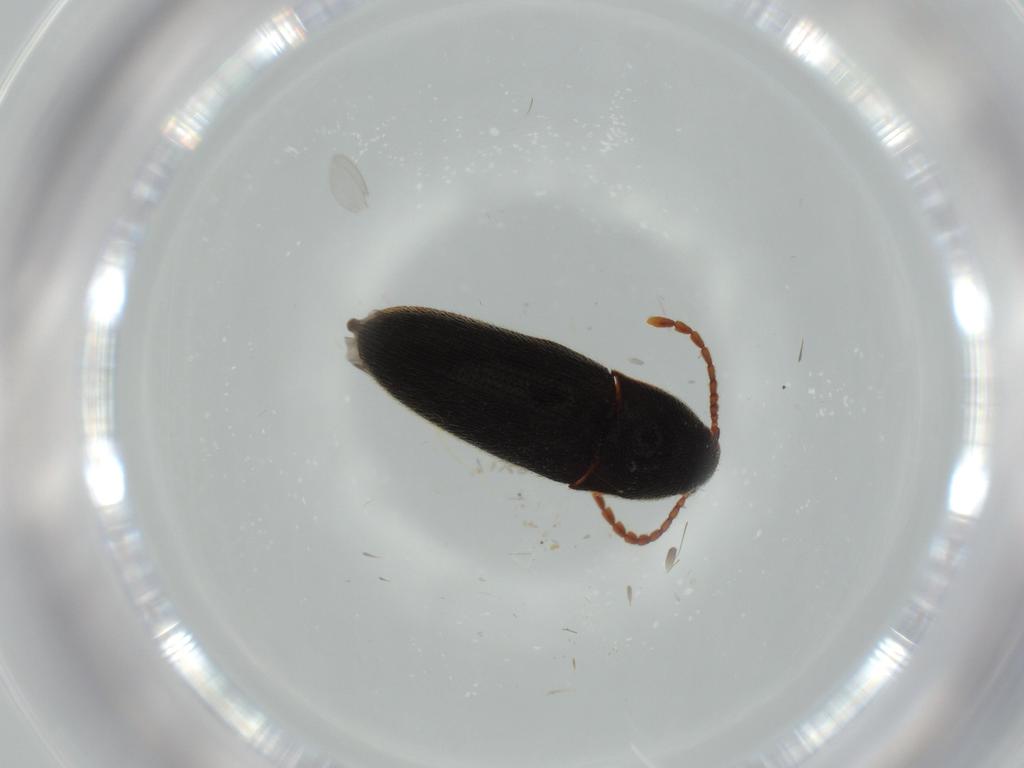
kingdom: Animalia
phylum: Arthropoda
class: Insecta
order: Coleoptera
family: Elateridae
